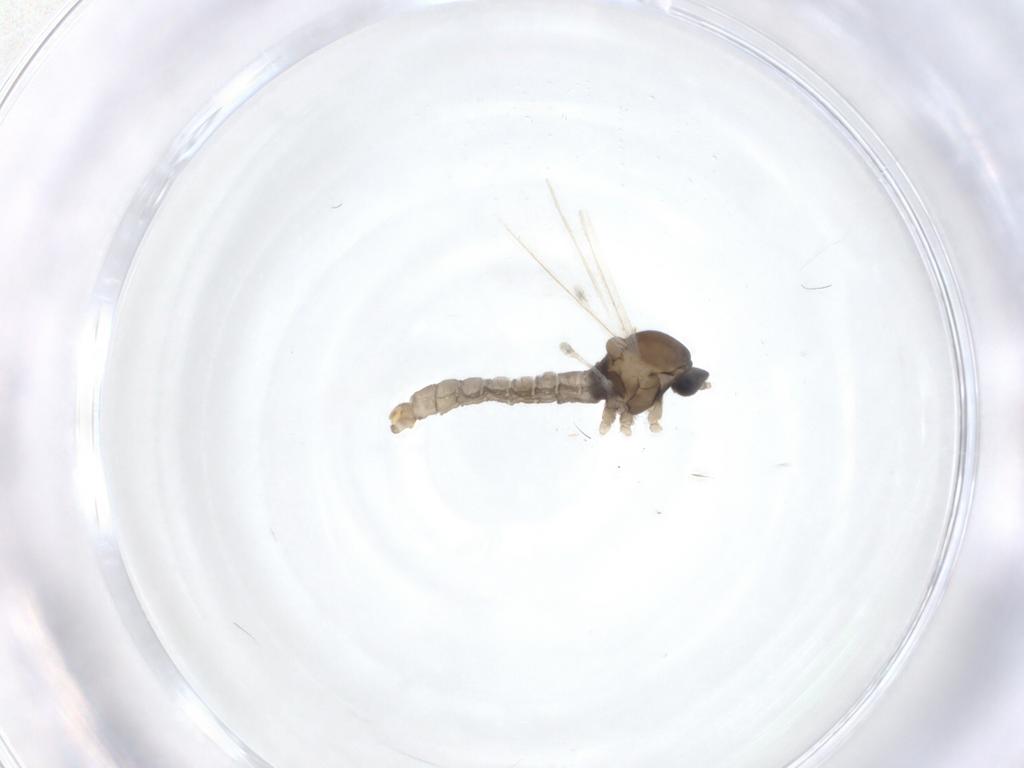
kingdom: Animalia
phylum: Arthropoda
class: Insecta
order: Diptera
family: Cecidomyiidae
